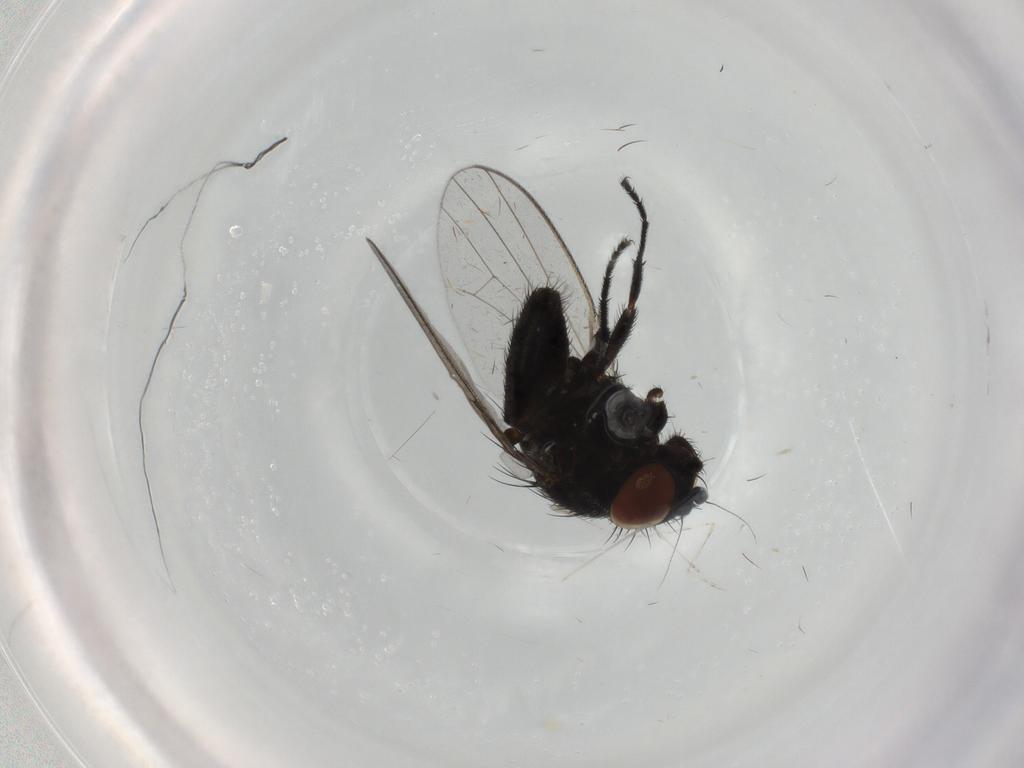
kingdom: Animalia
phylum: Arthropoda
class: Insecta
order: Diptera
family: Milichiidae
